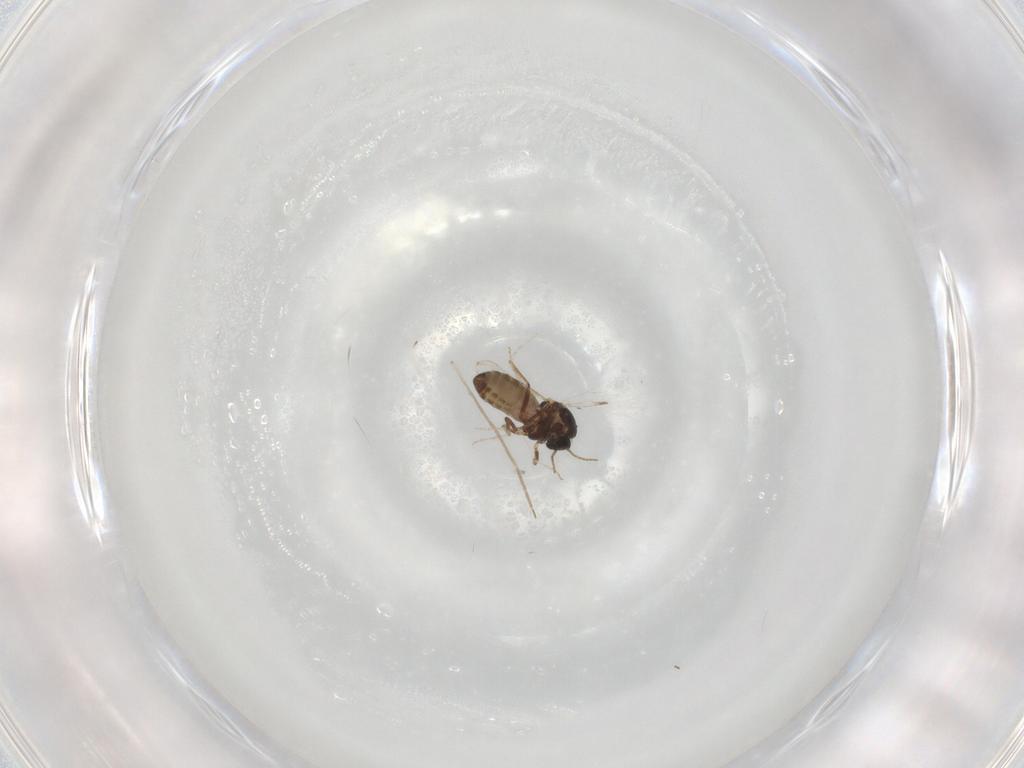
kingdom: Animalia
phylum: Arthropoda
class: Insecta
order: Diptera
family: Ceratopogonidae
